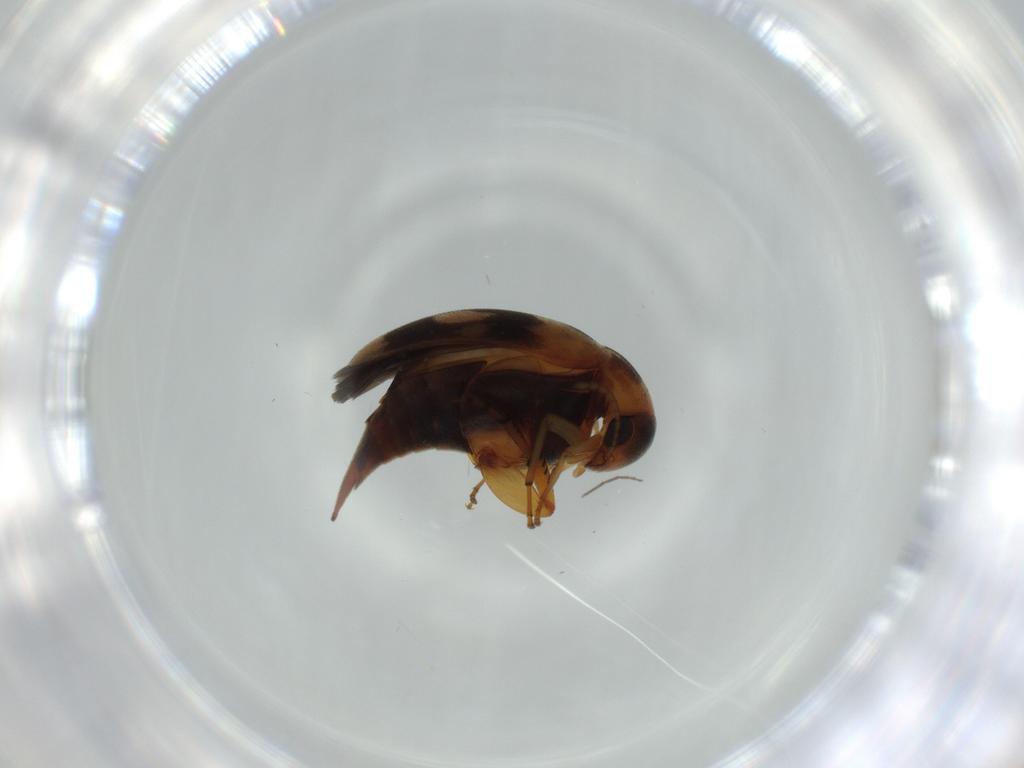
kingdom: Animalia
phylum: Arthropoda
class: Insecta
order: Coleoptera
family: Mordellidae
